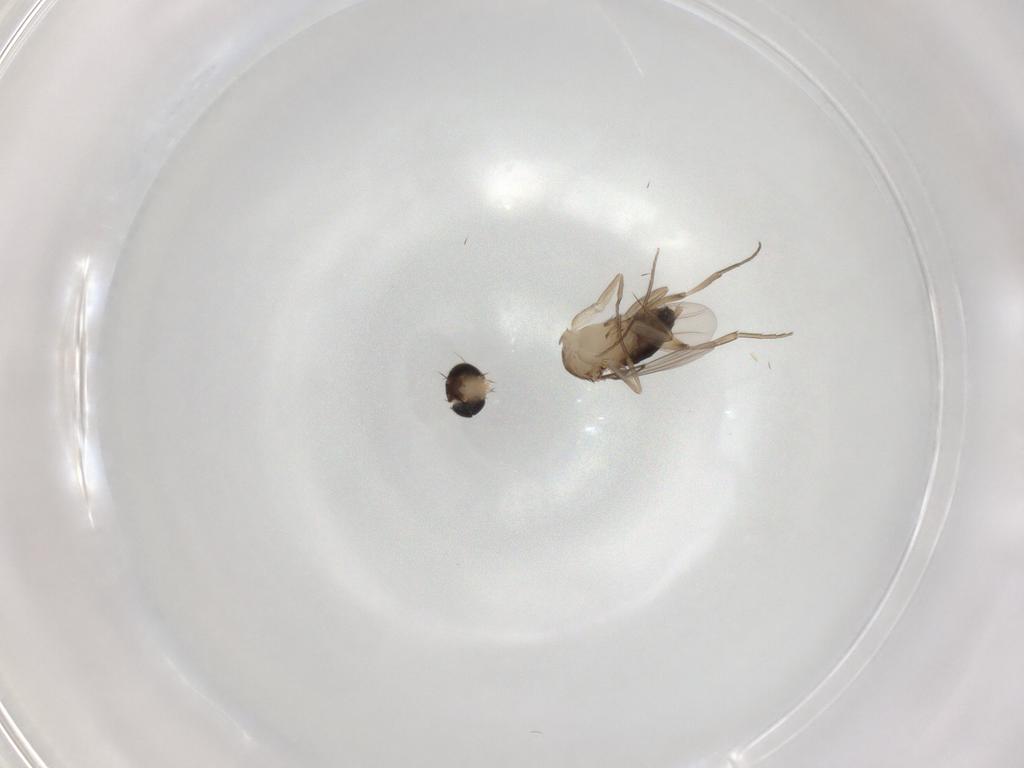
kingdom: Animalia
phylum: Arthropoda
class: Insecta
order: Diptera
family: Phoridae
